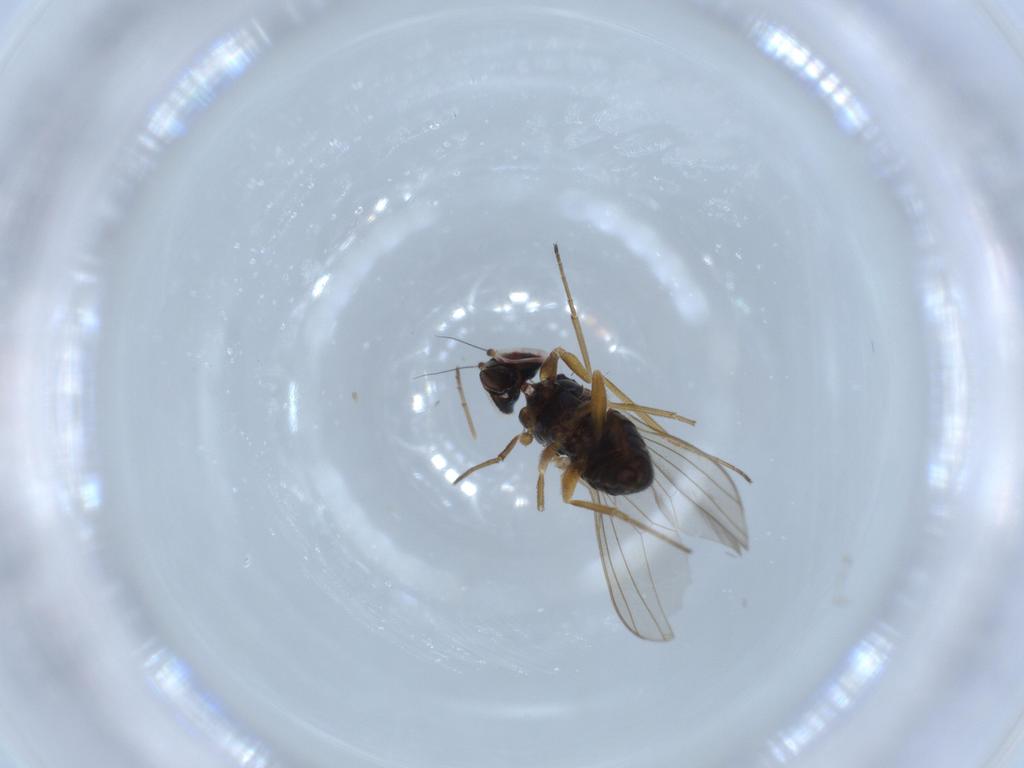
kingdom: Animalia
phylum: Arthropoda
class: Insecta
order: Diptera
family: Dolichopodidae
